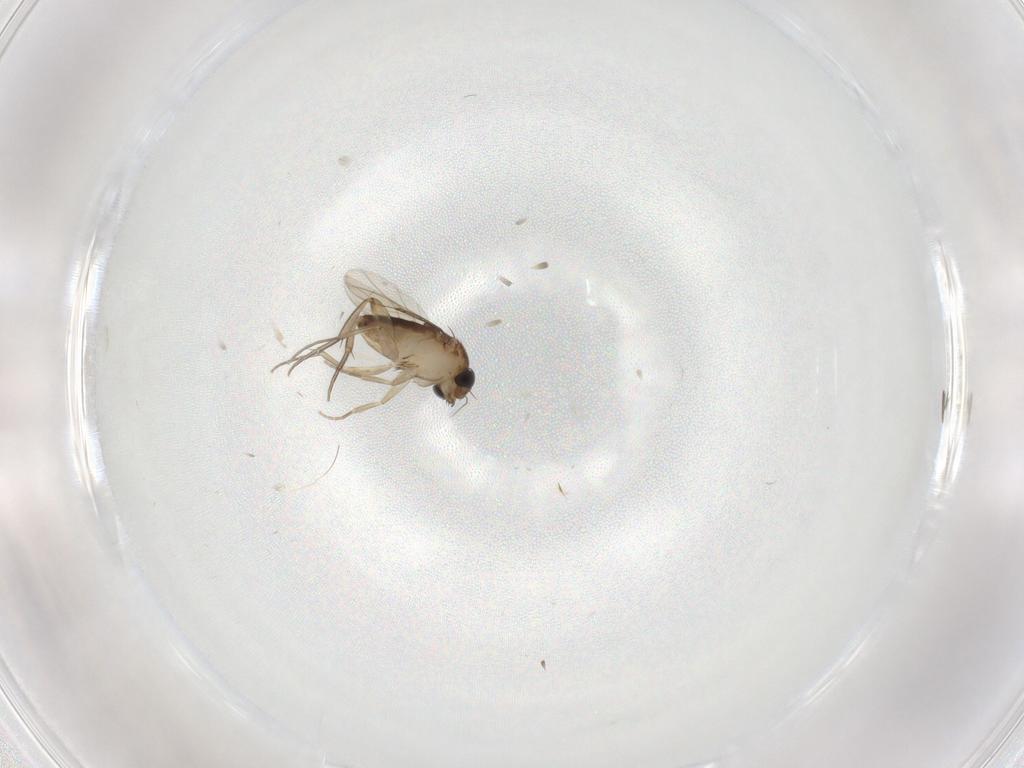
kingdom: Animalia
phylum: Arthropoda
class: Insecta
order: Diptera
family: Phoridae
